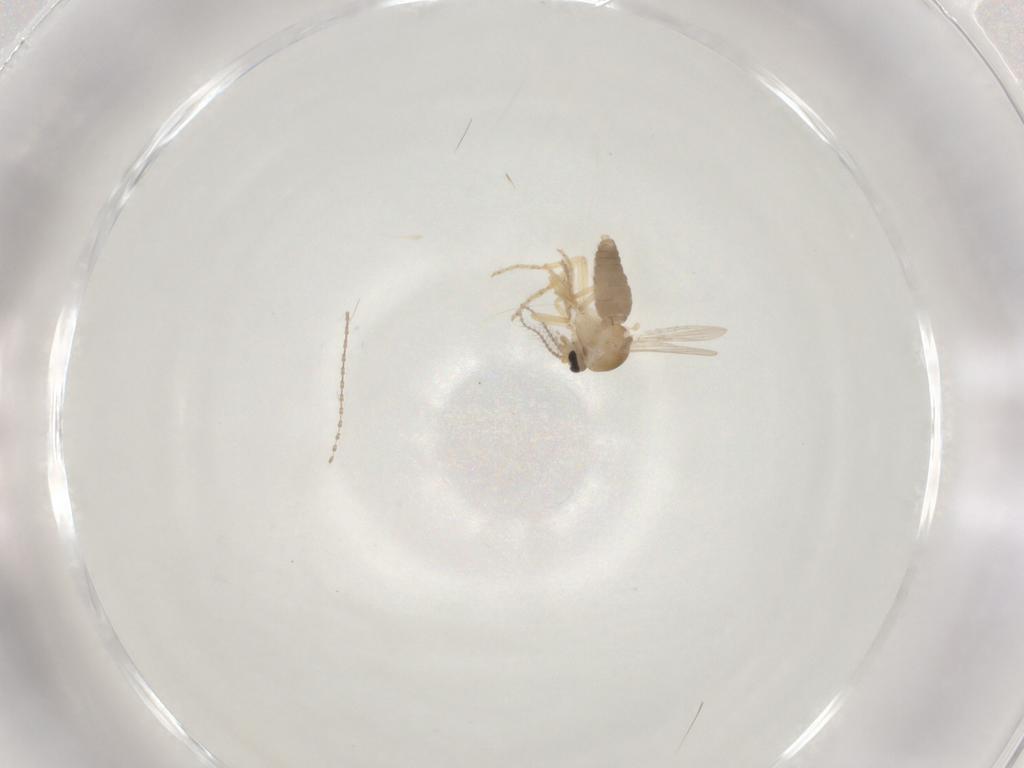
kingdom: Animalia
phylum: Arthropoda
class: Insecta
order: Diptera
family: Ceratopogonidae
